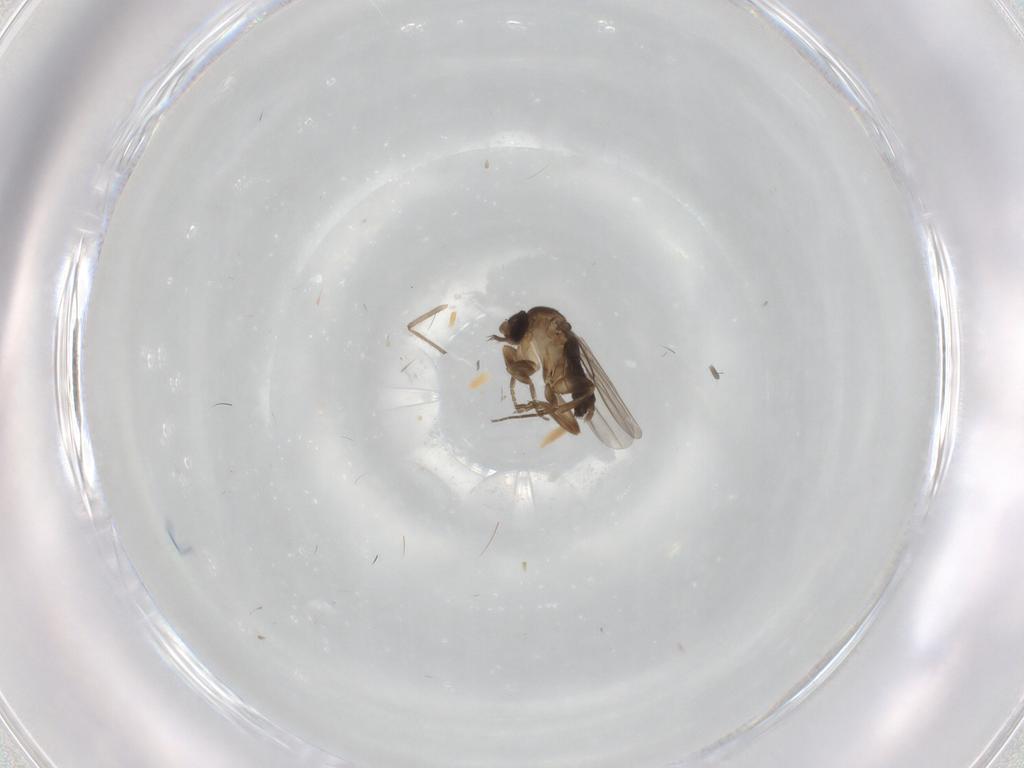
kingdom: Animalia
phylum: Arthropoda
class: Insecta
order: Diptera
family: Phoridae
